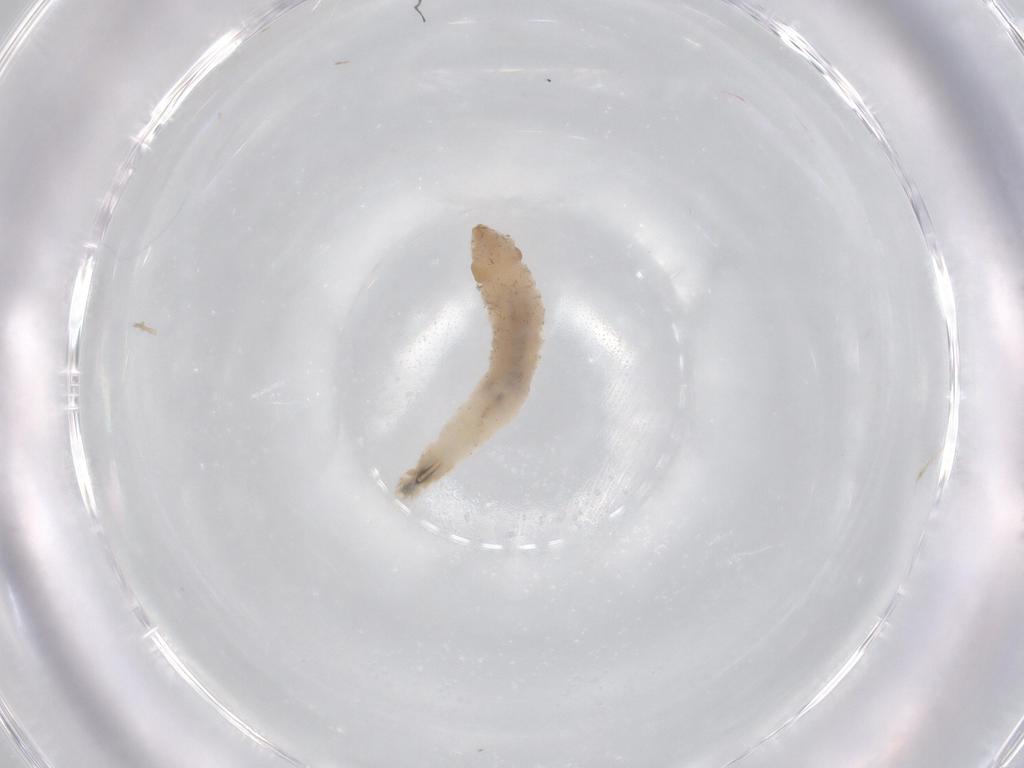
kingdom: Animalia
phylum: Arthropoda
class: Insecta
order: Diptera
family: Drosophilidae
